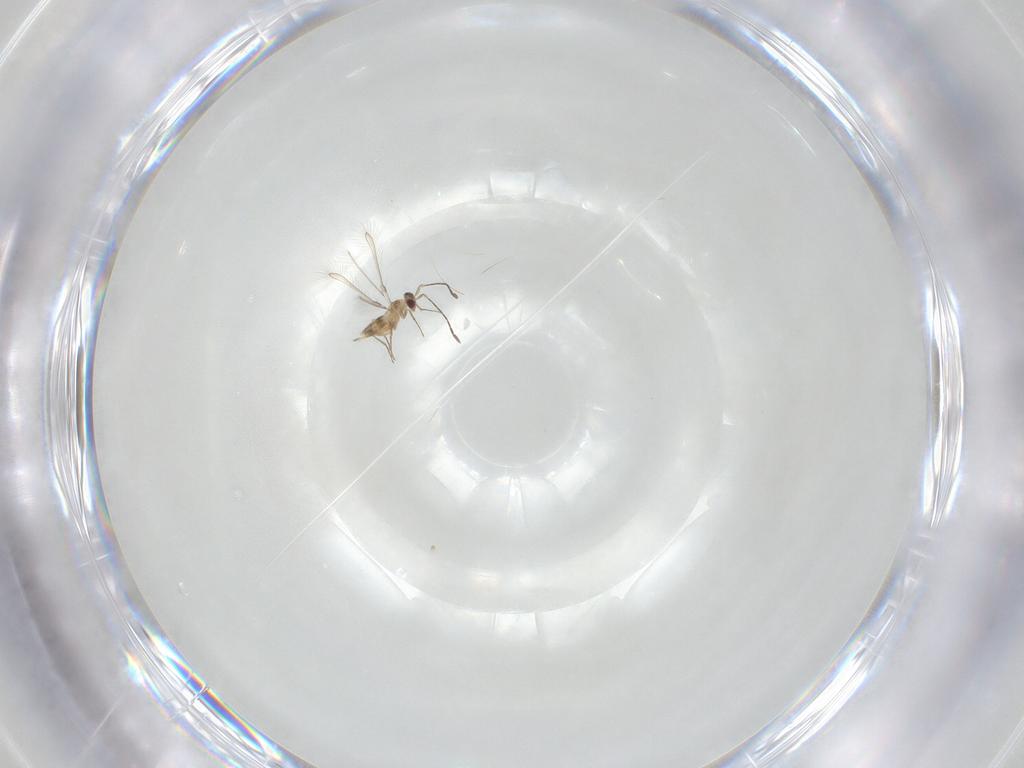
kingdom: Animalia
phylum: Arthropoda
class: Insecta
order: Hymenoptera
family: Mymaridae
